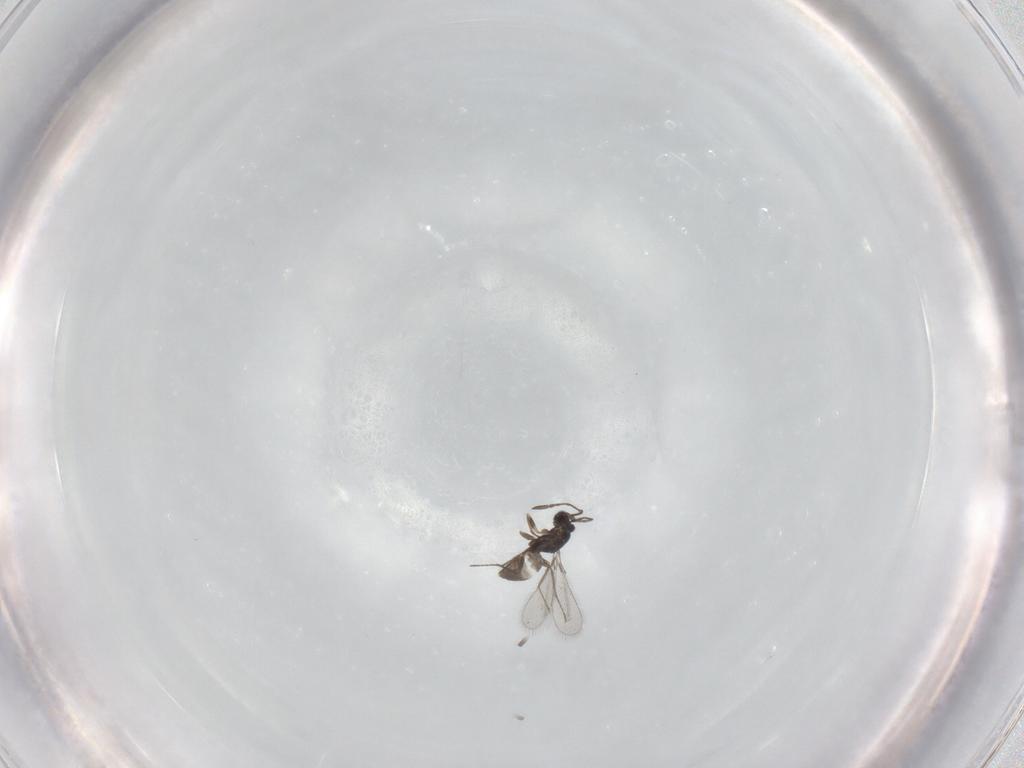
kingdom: Animalia
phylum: Arthropoda
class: Insecta
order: Hymenoptera
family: Mymaridae
